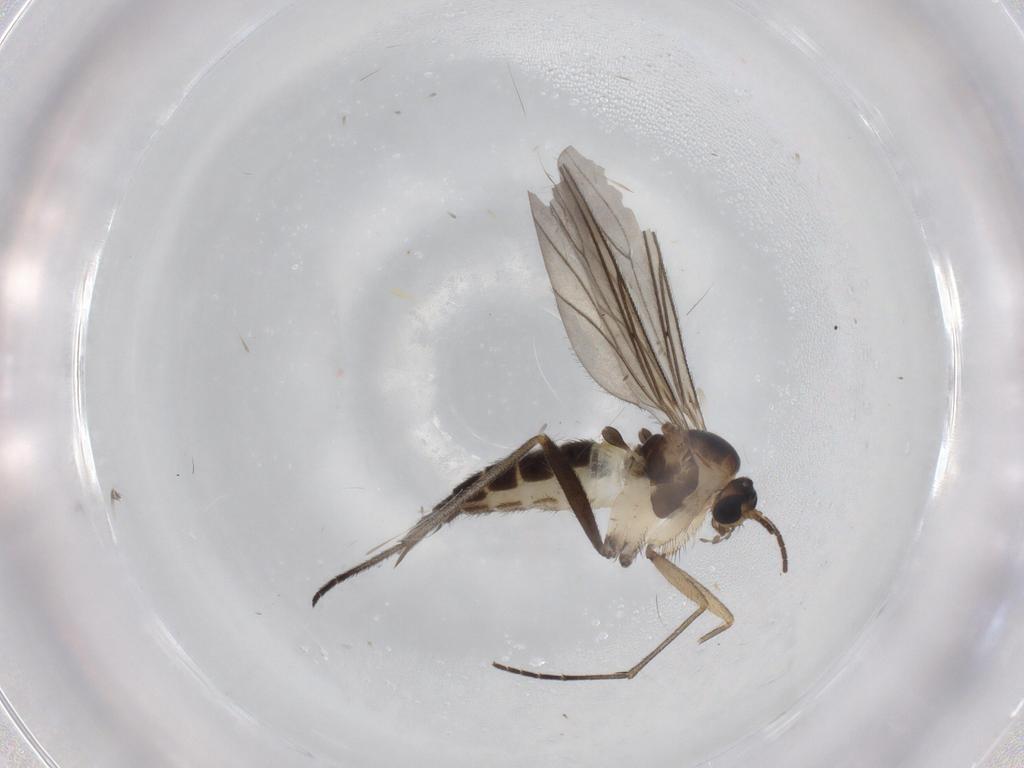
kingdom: Animalia
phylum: Arthropoda
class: Insecta
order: Diptera
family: Sciaridae
